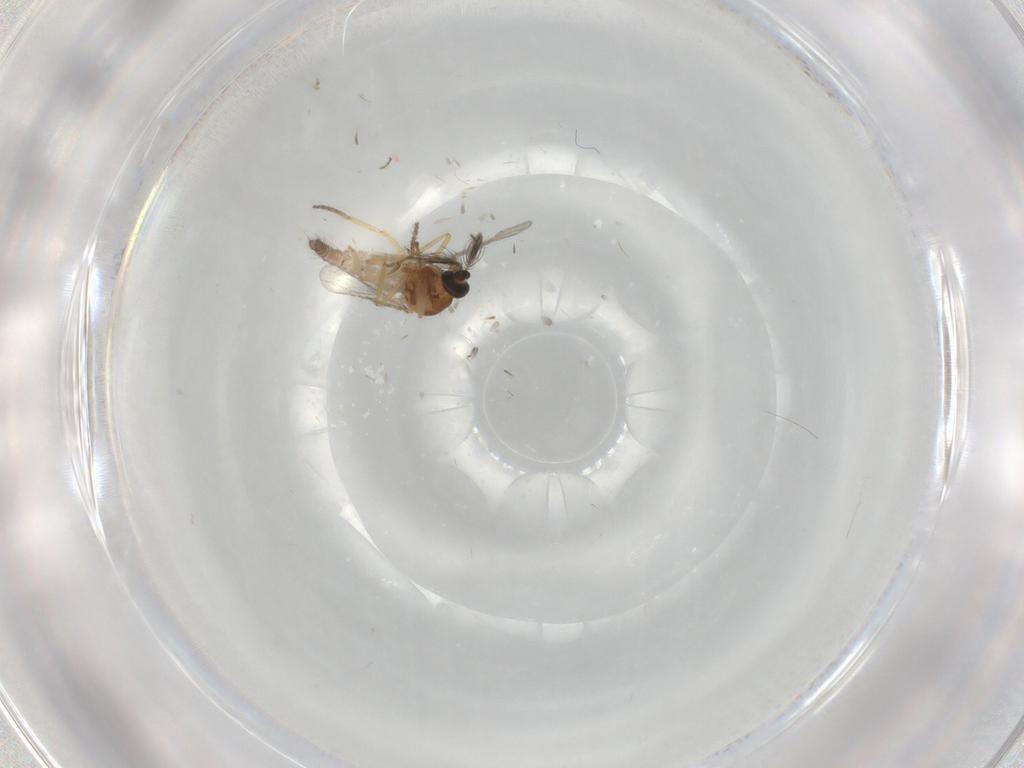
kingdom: Animalia
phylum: Arthropoda
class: Insecta
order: Diptera
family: Ceratopogonidae
